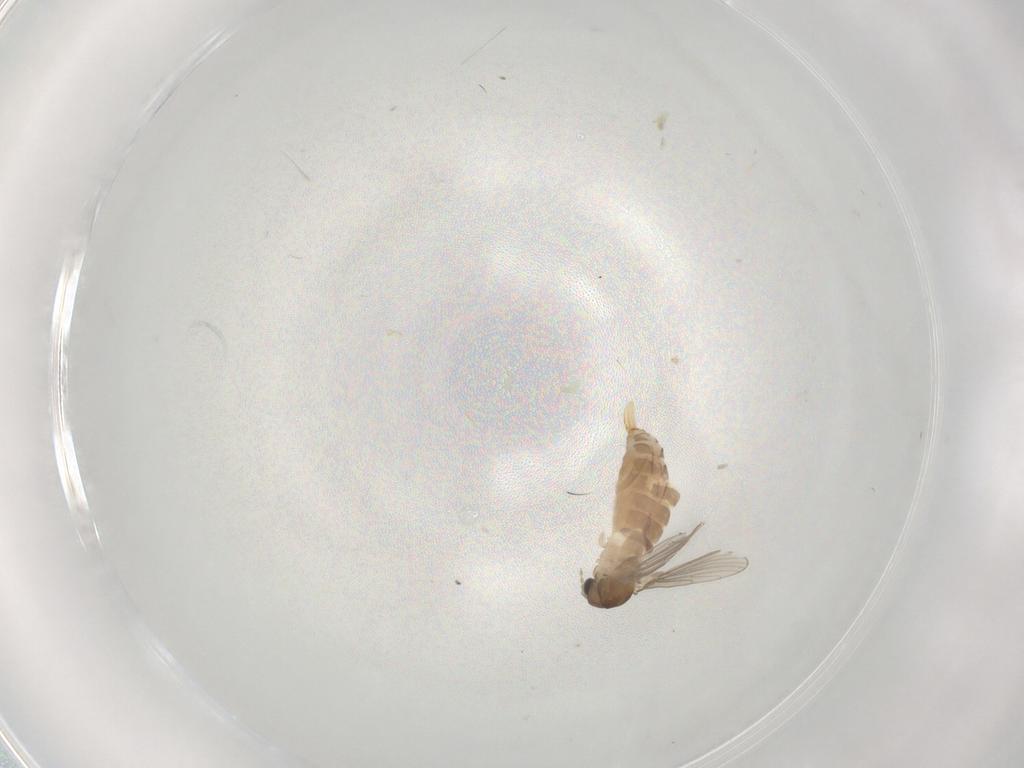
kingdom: Animalia
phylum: Arthropoda
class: Insecta
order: Diptera
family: Psychodidae
